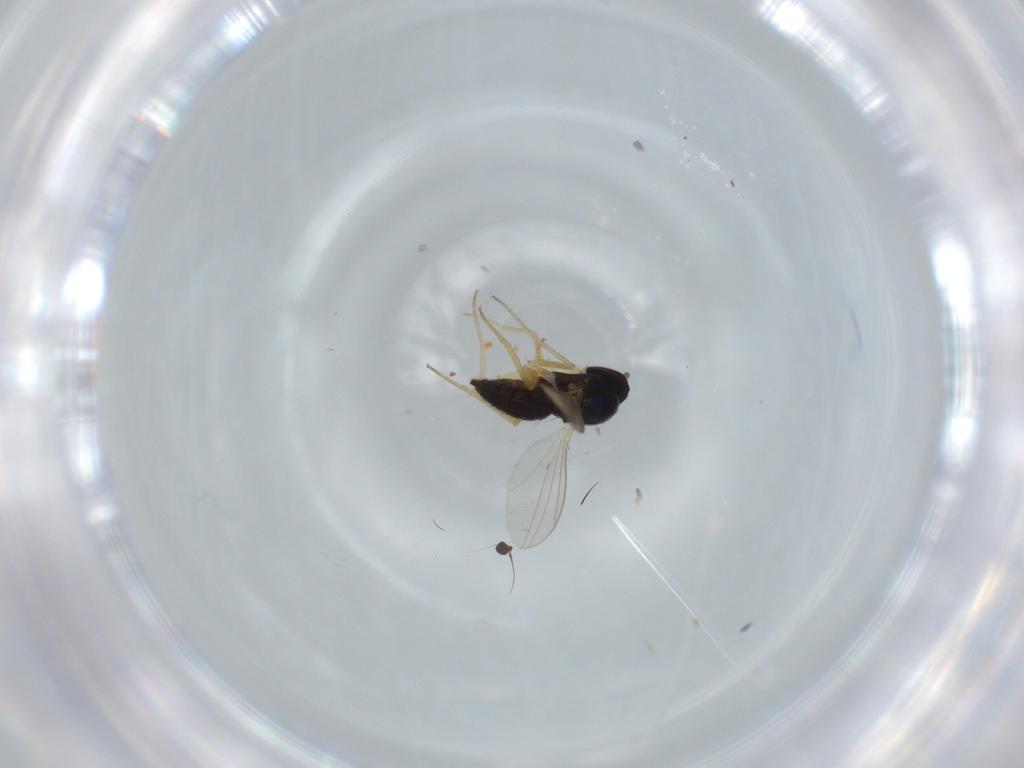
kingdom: Animalia
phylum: Arthropoda
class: Insecta
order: Diptera
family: Dolichopodidae
